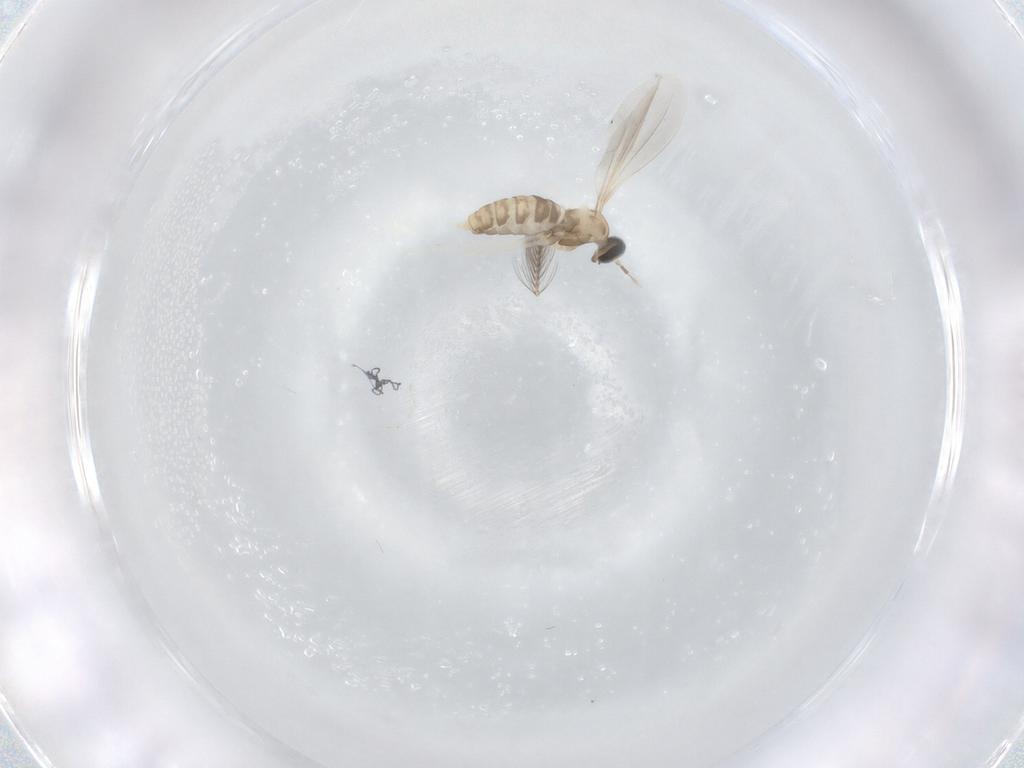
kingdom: Animalia
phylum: Arthropoda
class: Insecta
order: Diptera
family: Cecidomyiidae
